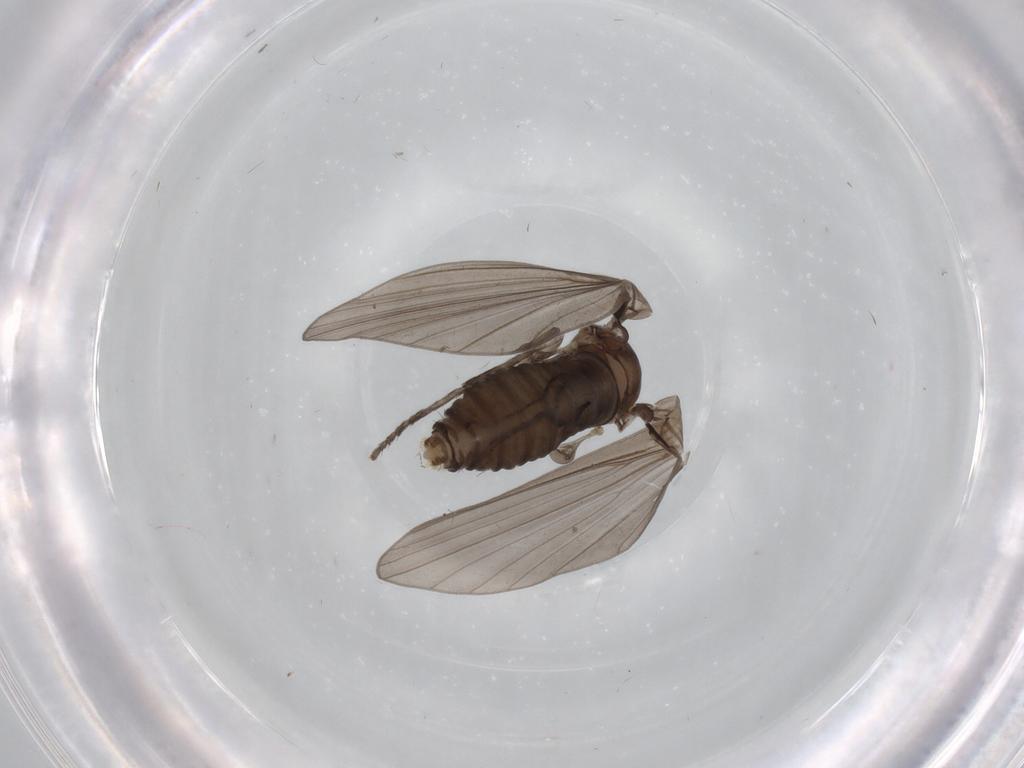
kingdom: Animalia
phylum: Arthropoda
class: Insecta
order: Diptera
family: Psychodidae
